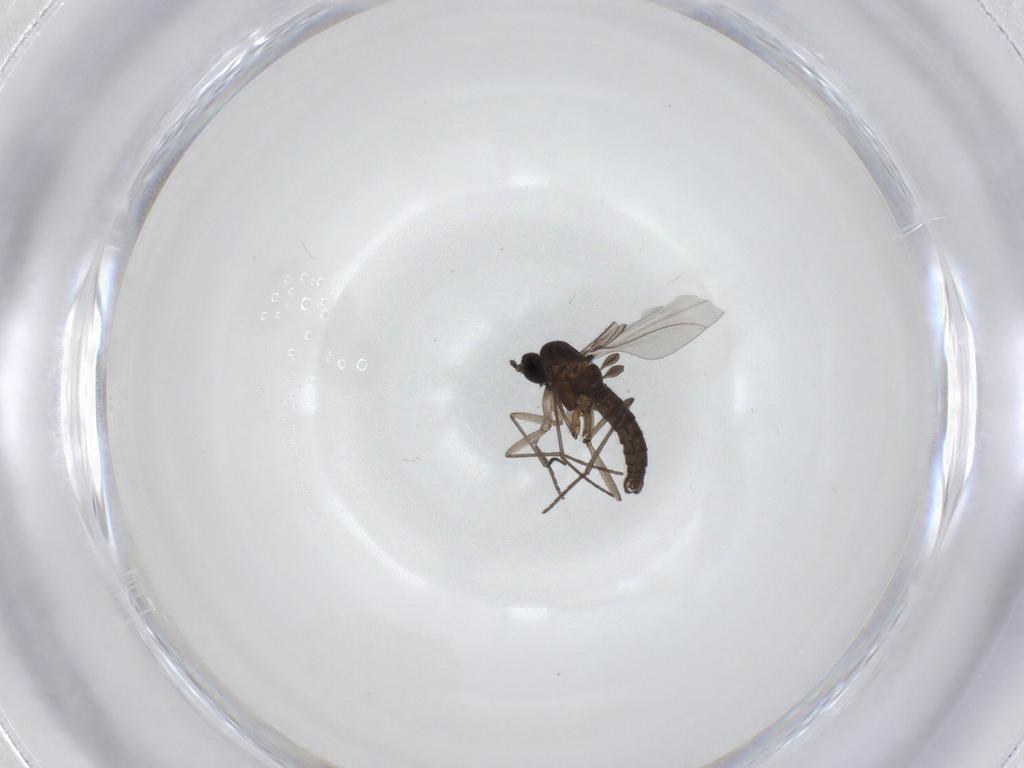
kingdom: Animalia
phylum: Arthropoda
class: Insecta
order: Diptera
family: Sciaridae
